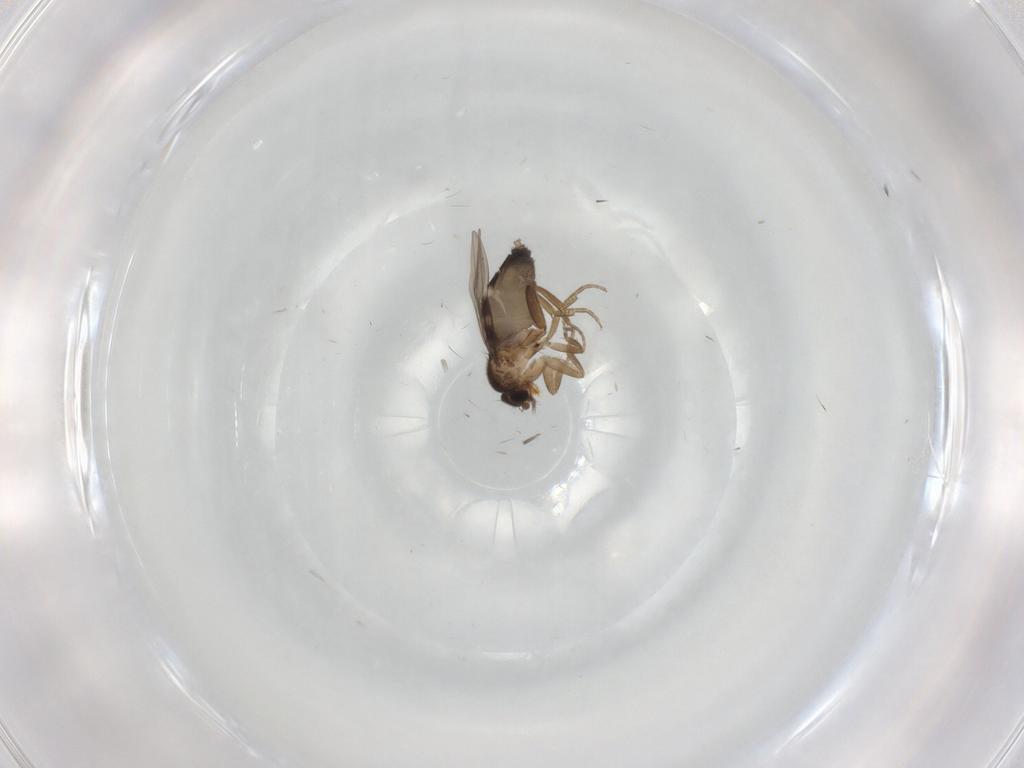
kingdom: Animalia
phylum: Arthropoda
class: Insecta
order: Diptera
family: Phoridae
